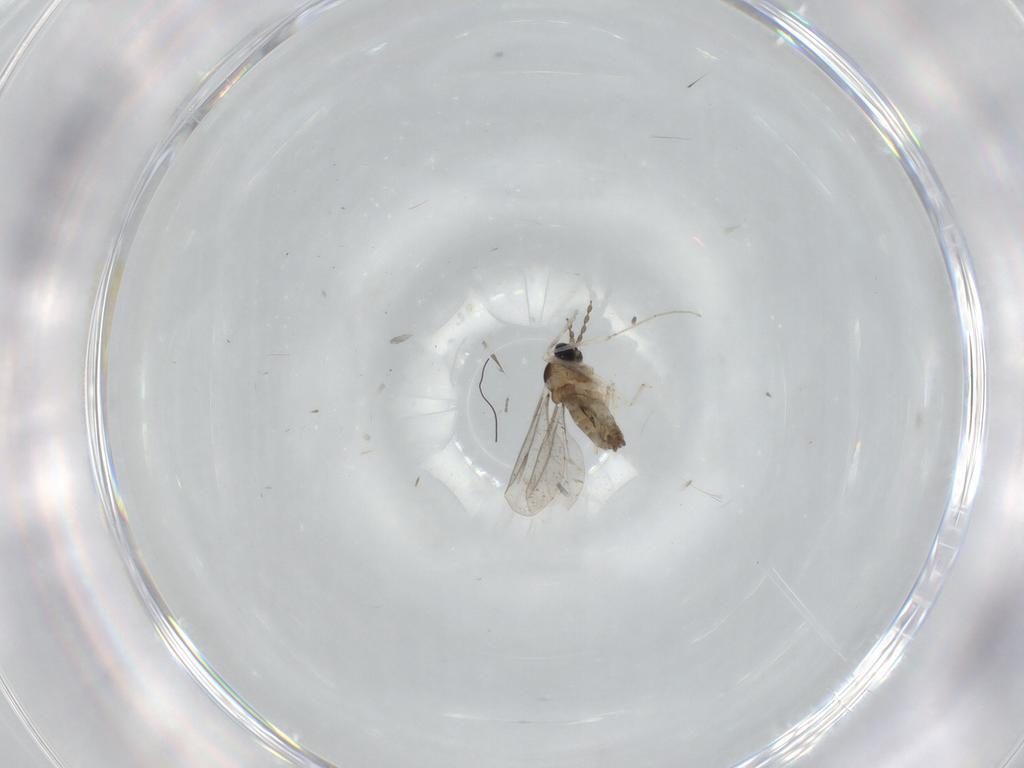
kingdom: Animalia
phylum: Arthropoda
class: Insecta
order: Diptera
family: Cecidomyiidae
